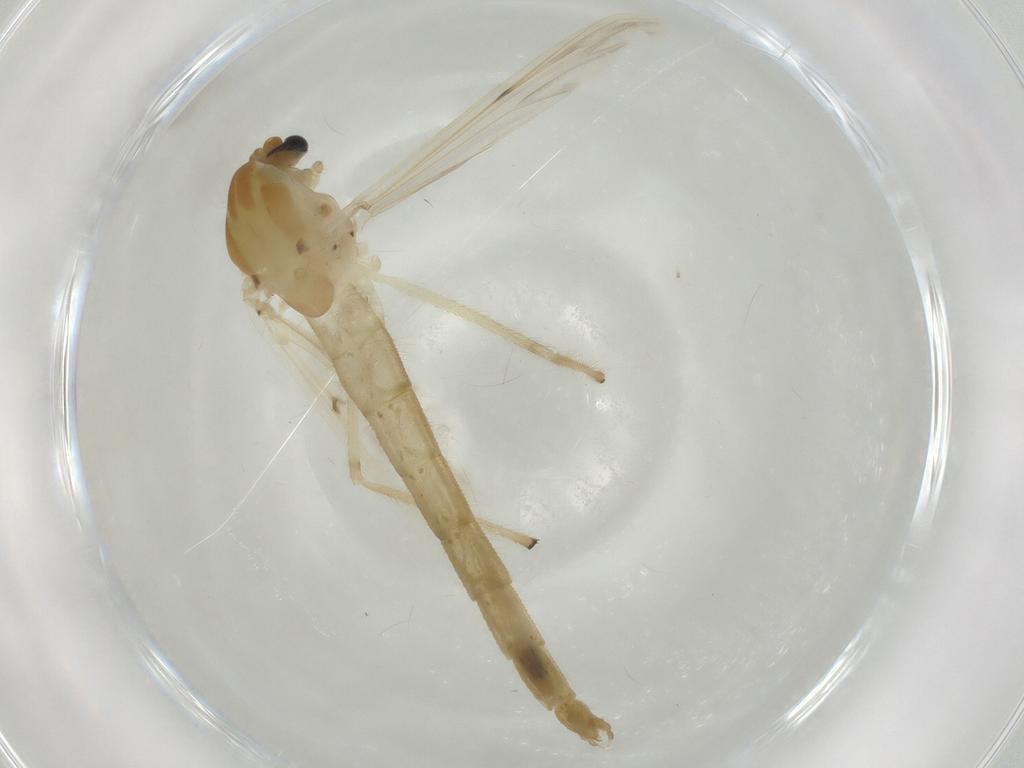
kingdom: Animalia
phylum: Arthropoda
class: Insecta
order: Diptera
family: Chironomidae
